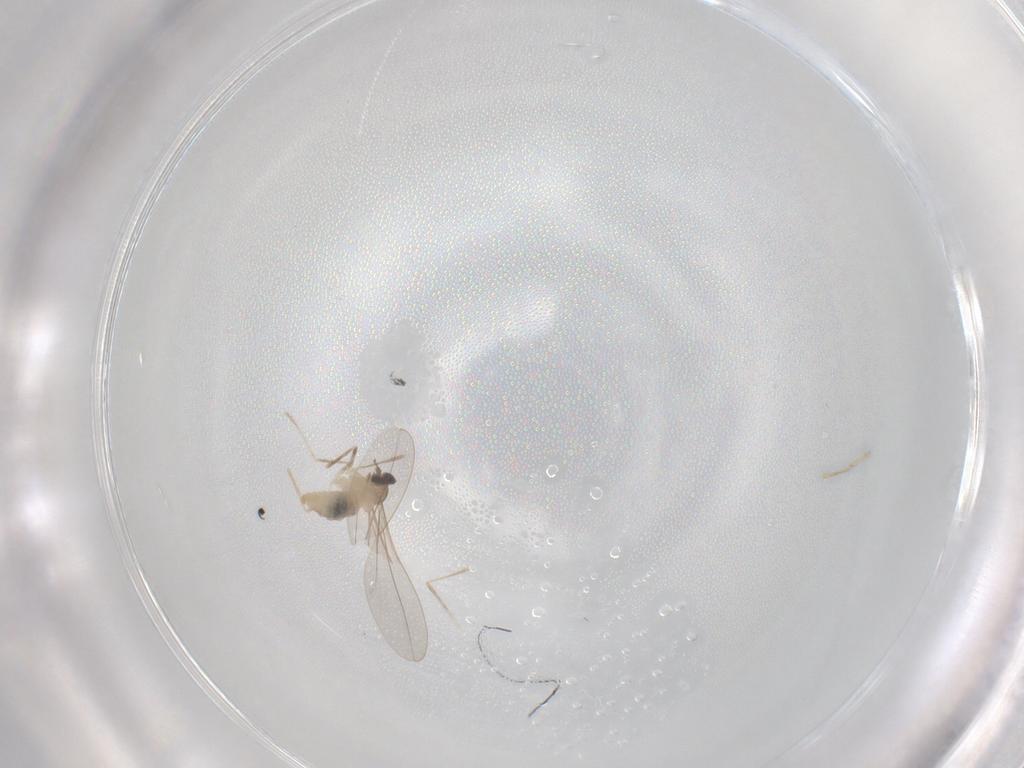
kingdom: Animalia
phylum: Arthropoda
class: Insecta
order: Diptera
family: Cecidomyiidae
